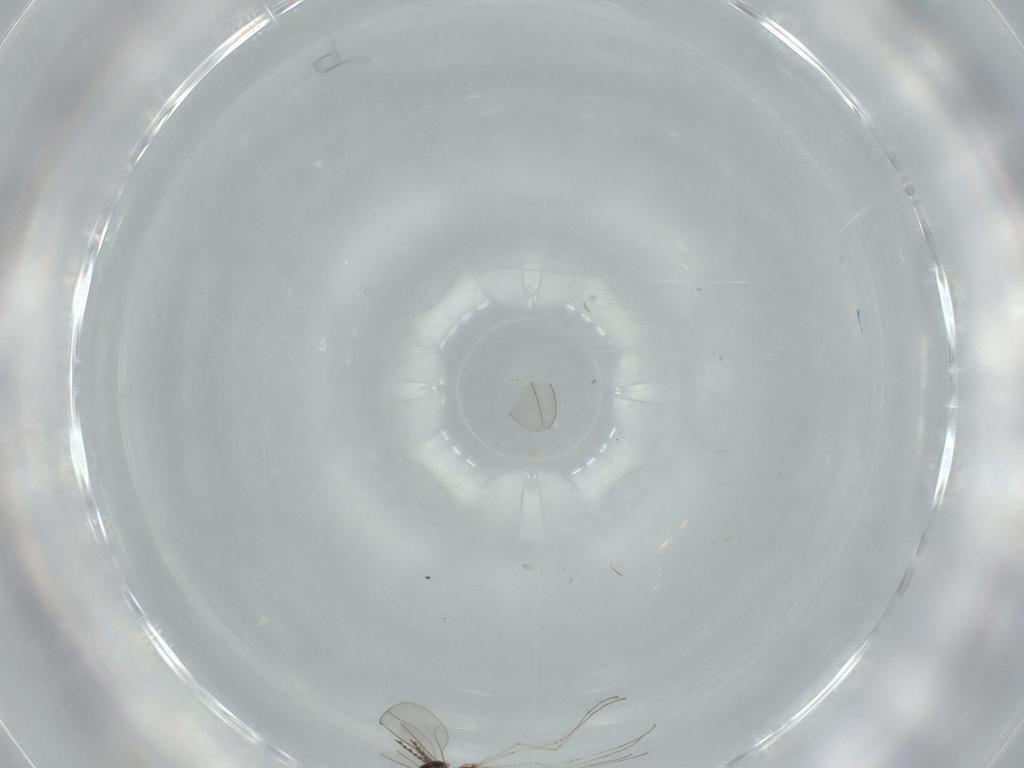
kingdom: Animalia
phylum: Arthropoda
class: Insecta
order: Diptera
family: Cecidomyiidae
